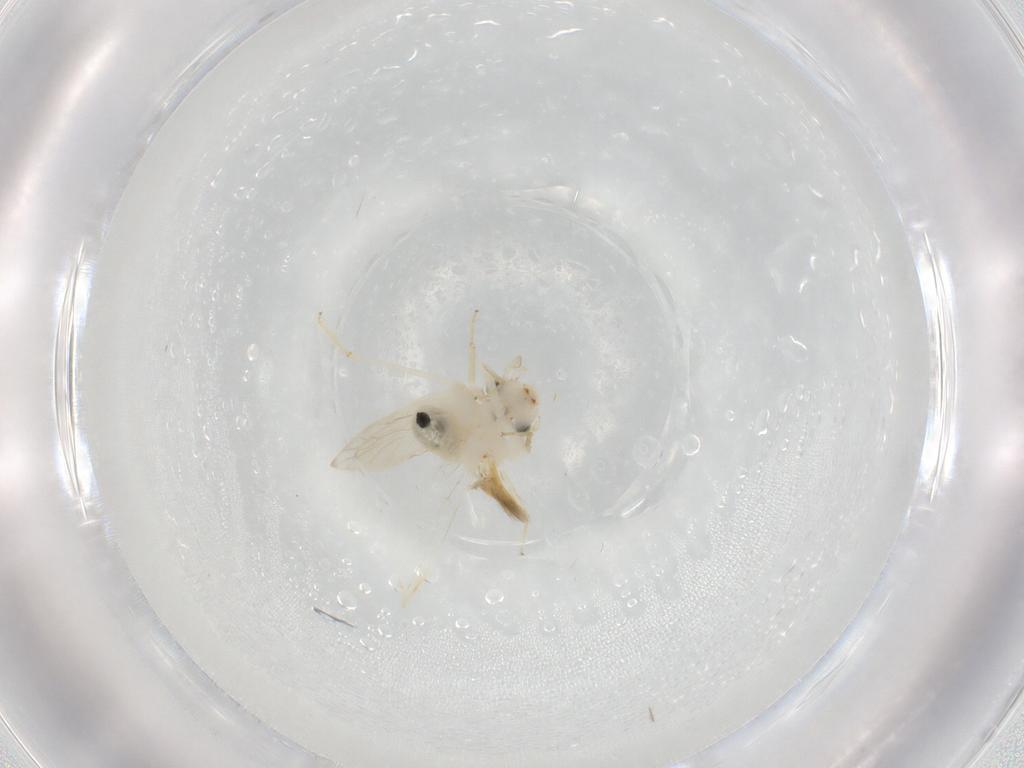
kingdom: Animalia
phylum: Arthropoda
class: Insecta
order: Psocodea
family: Lepidopsocidae
